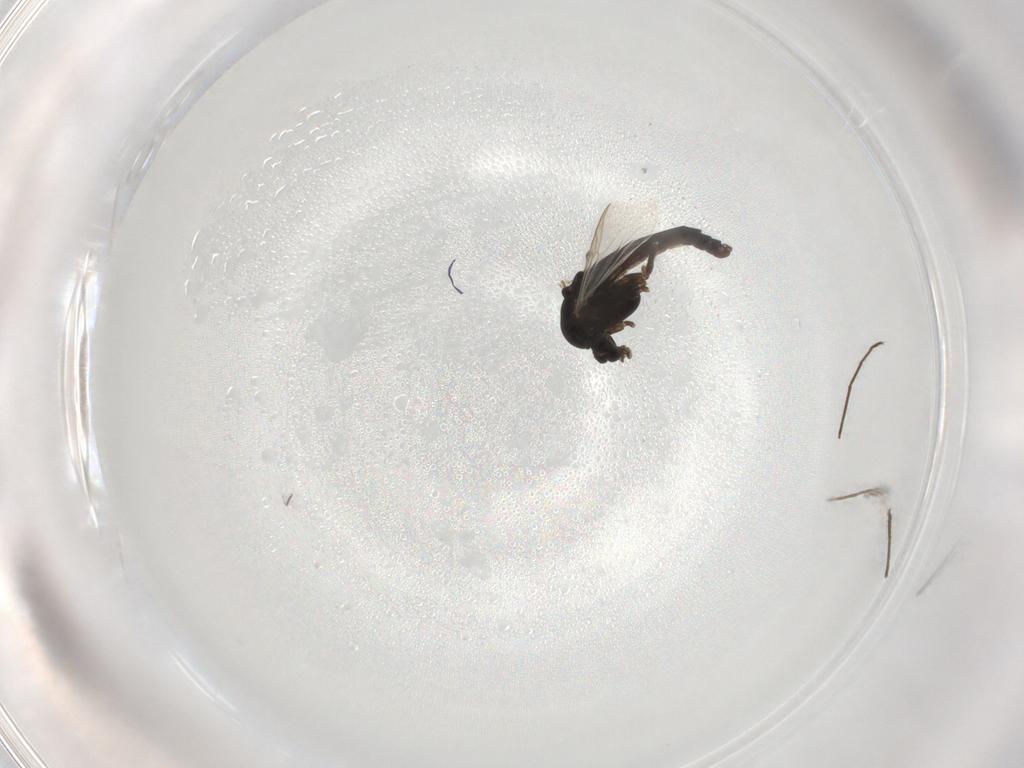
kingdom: Animalia
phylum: Arthropoda
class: Insecta
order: Diptera
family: Chironomidae
